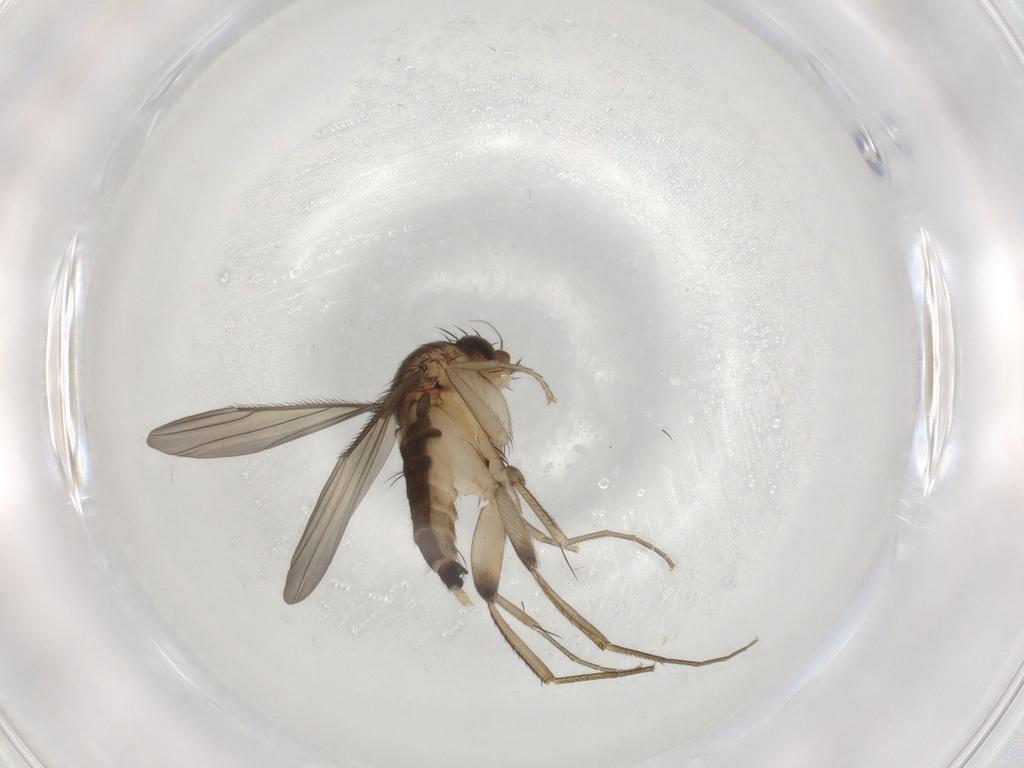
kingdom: Animalia
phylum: Arthropoda
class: Insecta
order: Diptera
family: Phoridae
